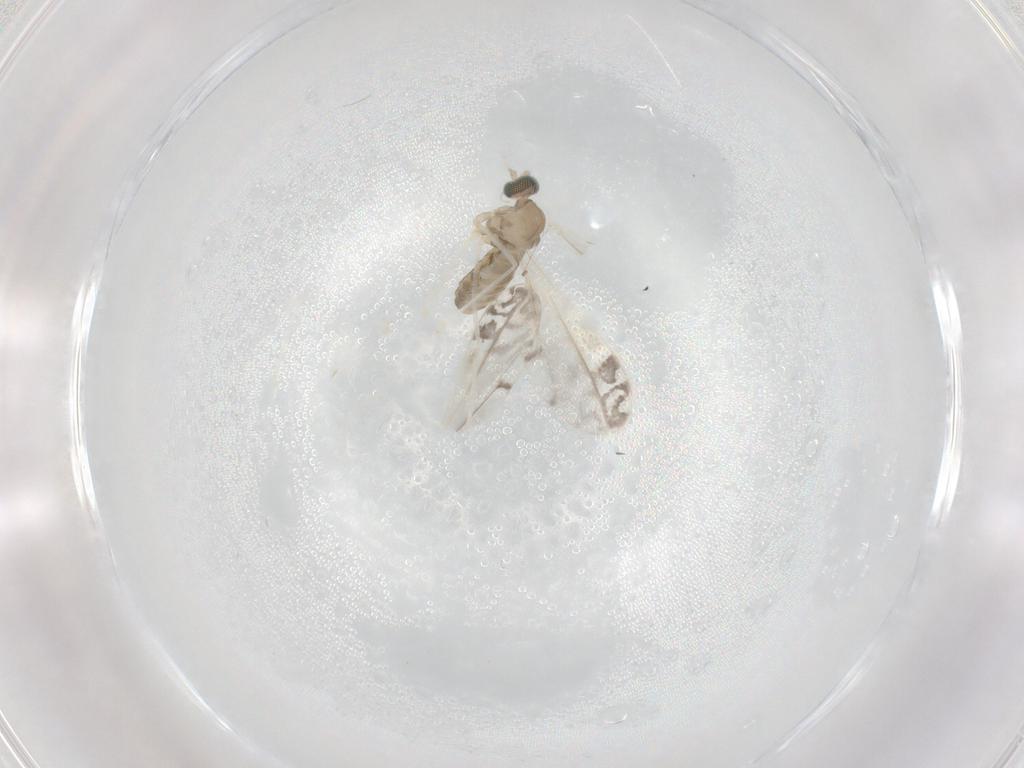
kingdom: Animalia
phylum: Arthropoda
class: Insecta
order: Diptera
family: Cecidomyiidae
